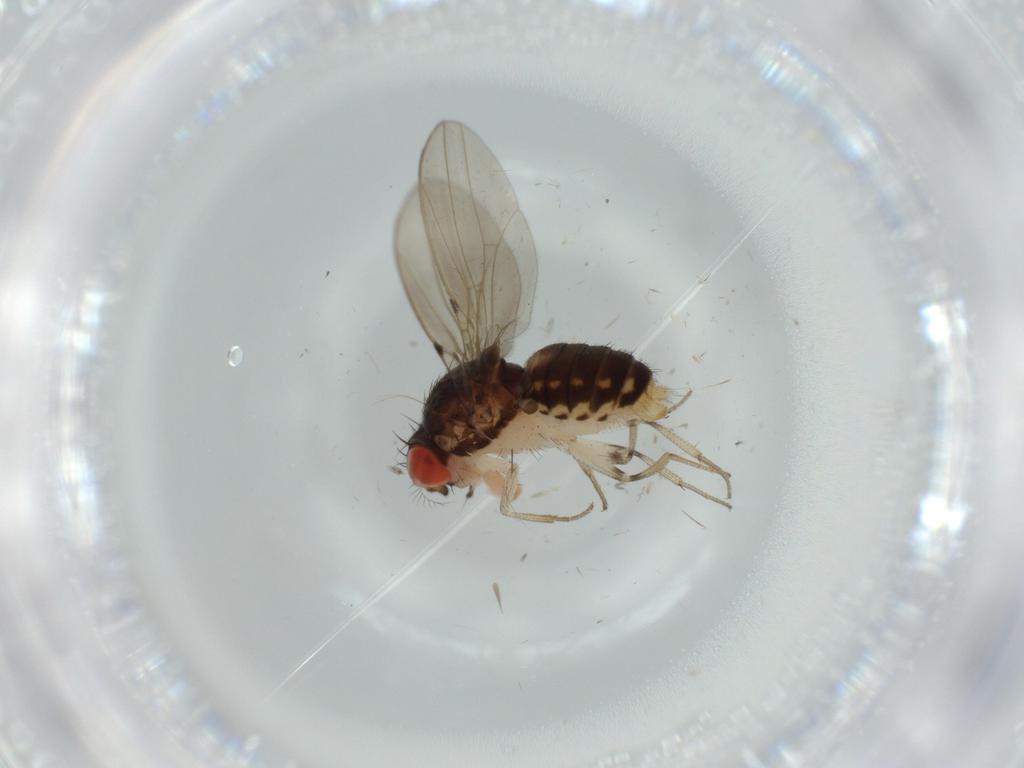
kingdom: Animalia
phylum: Arthropoda
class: Insecta
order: Diptera
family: Drosophilidae
